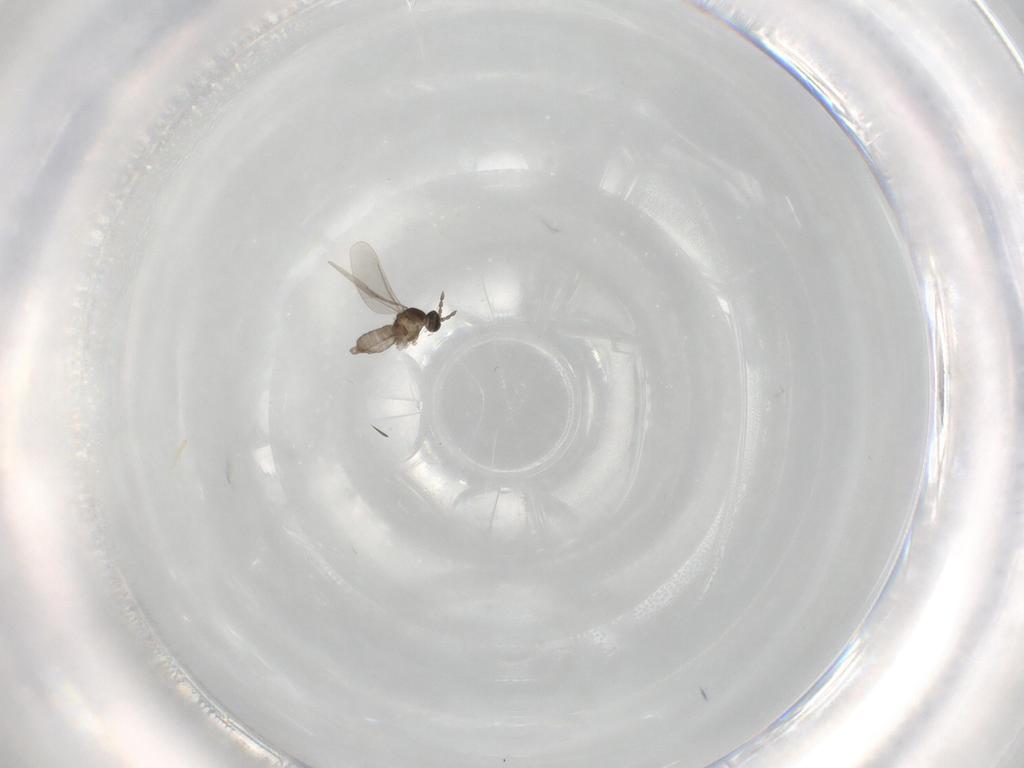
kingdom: Animalia
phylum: Arthropoda
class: Insecta
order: Diptera
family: Cecidomyiidae
